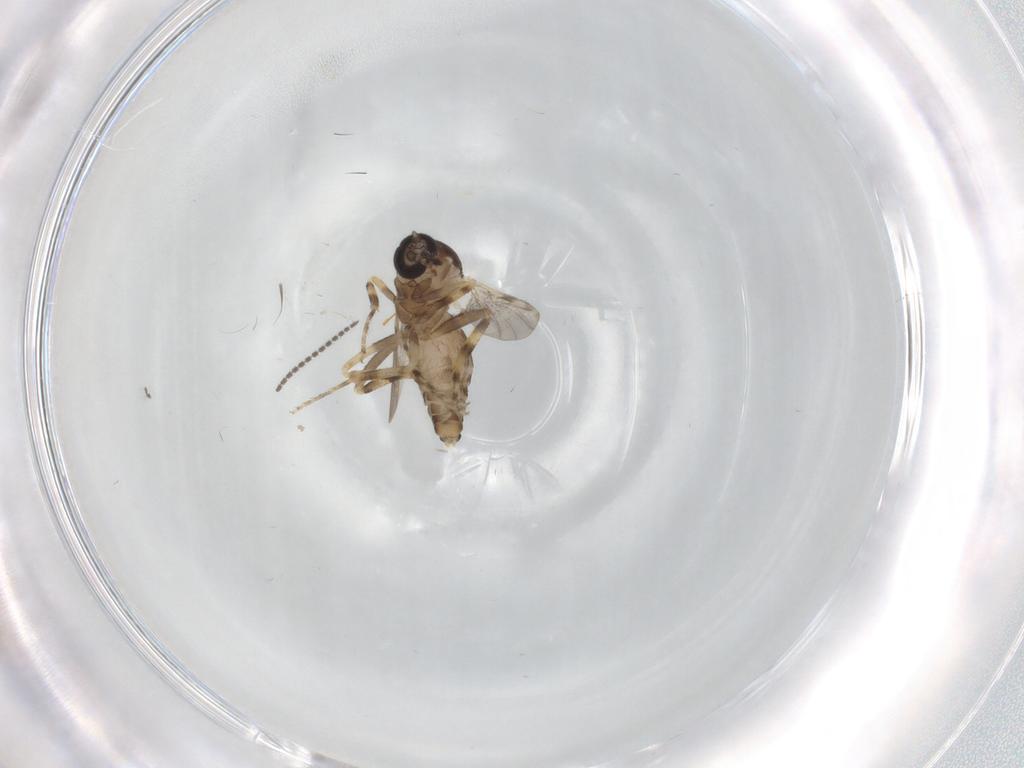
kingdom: Animalia
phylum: Arthropoda
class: Insecta
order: Diptera
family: Ceratopogonidae
